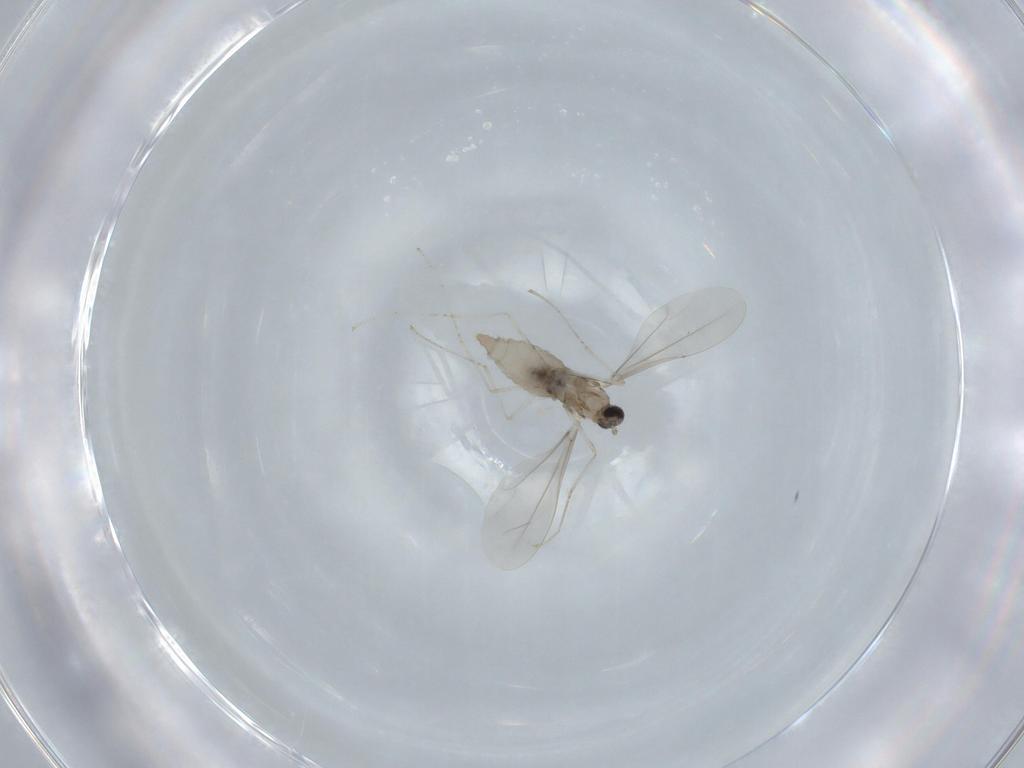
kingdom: Animalia
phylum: Arthropoda
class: Insecta
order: Diptera
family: Cecidomyiidae
